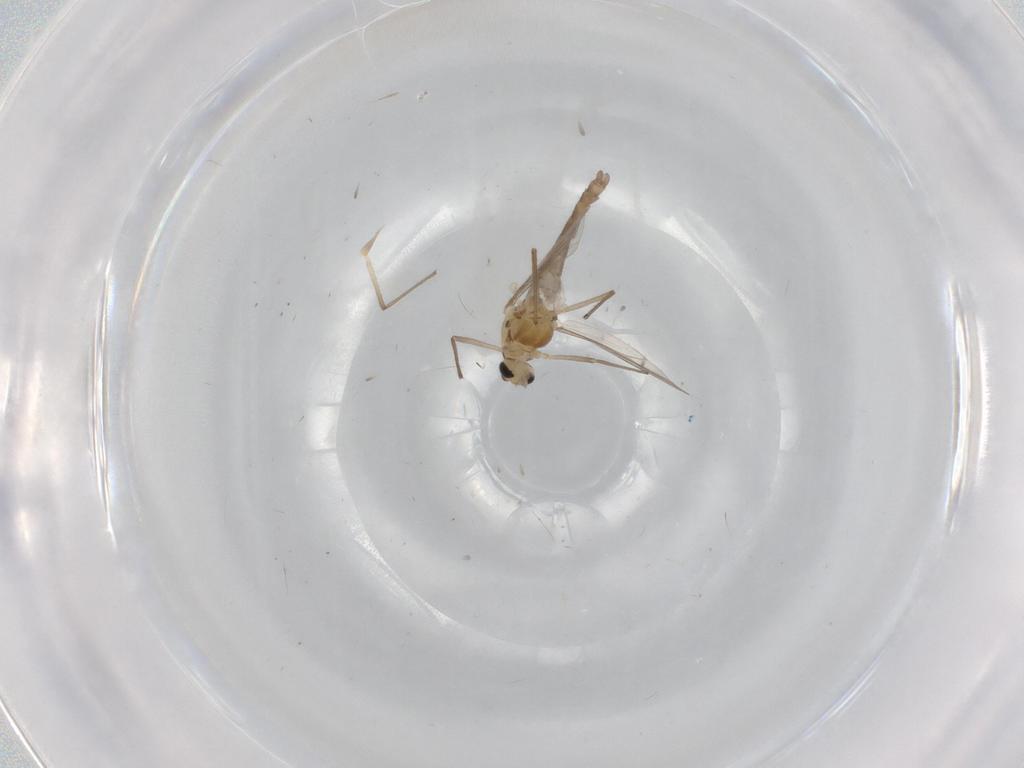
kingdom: Animalia
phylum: Arthropoda
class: Insecta
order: Diptera
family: Chironomidae
